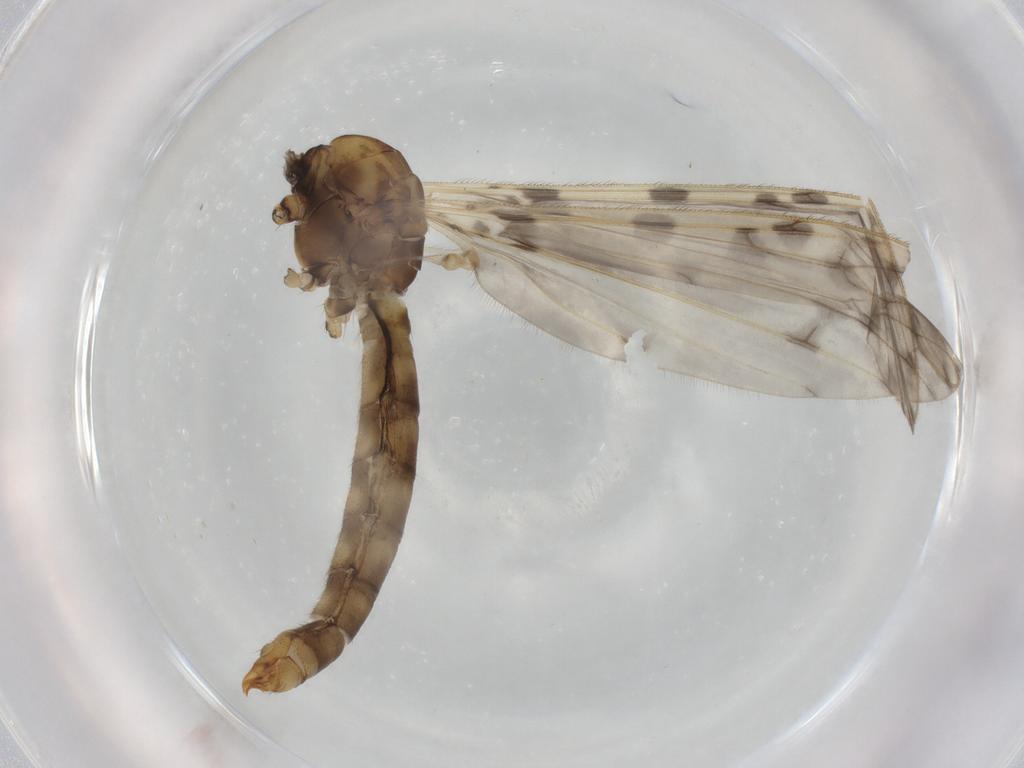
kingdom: Animalia
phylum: Arthropoda
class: Insecta
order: Diptera
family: Limoniidae
